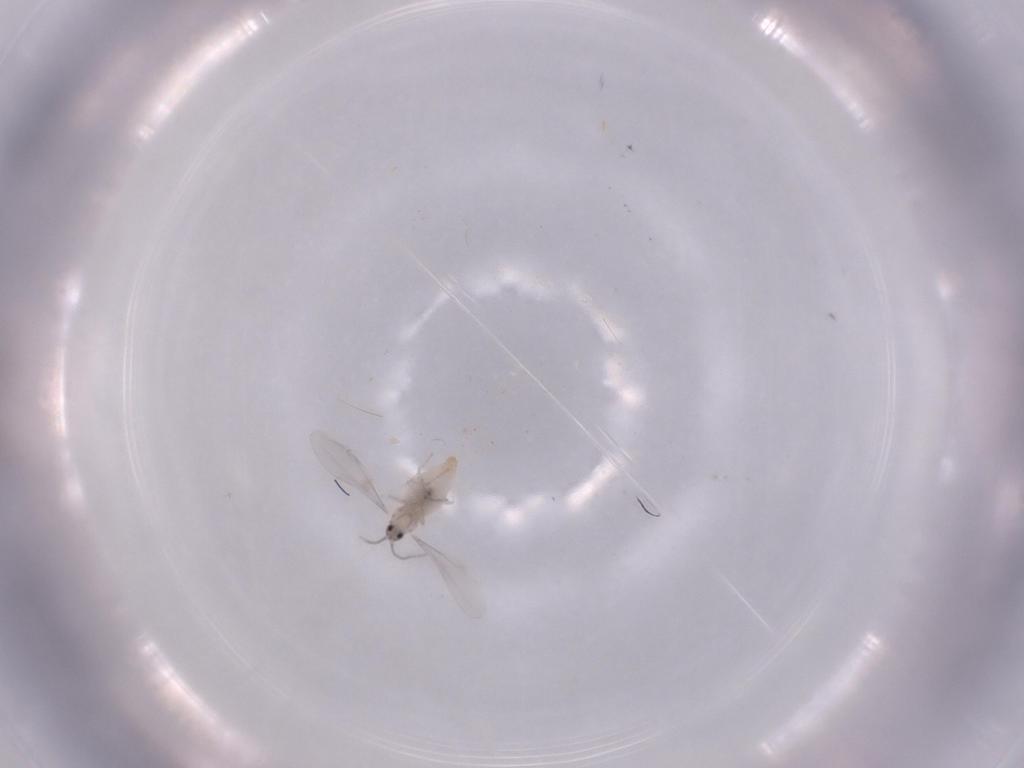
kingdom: Animalia
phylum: Arthropoda
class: Insecta
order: Diptera
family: Chironomidae
